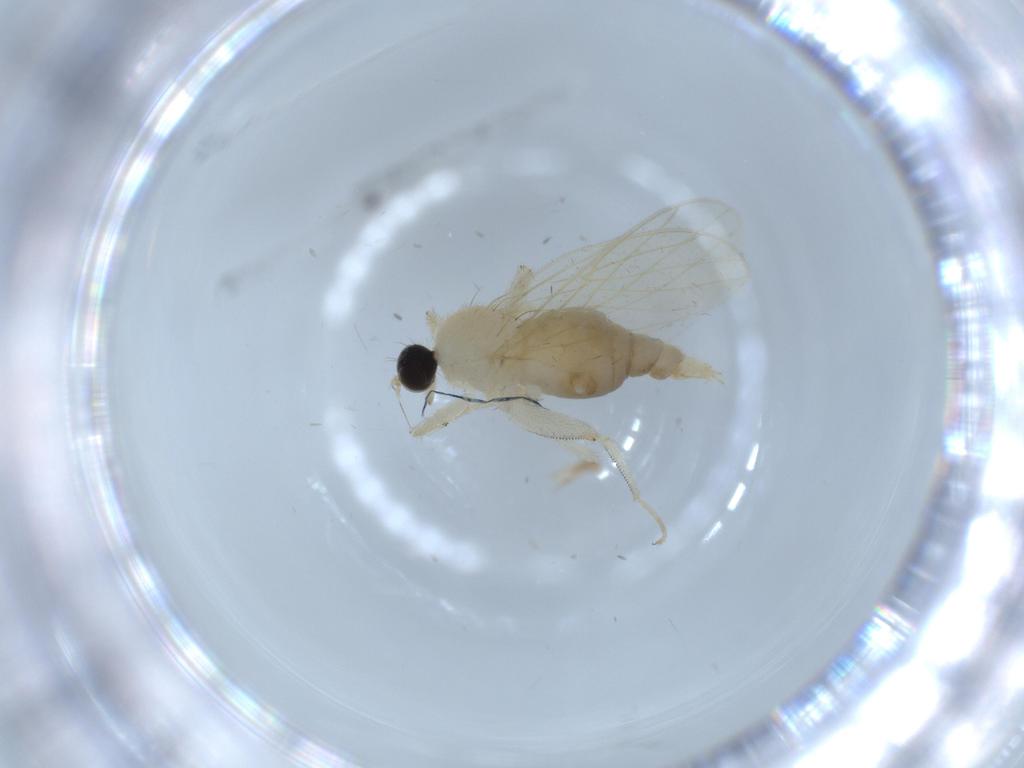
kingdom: Animalia
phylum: Arthropoda
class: Insecta
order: Diptera
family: Hybotidae
